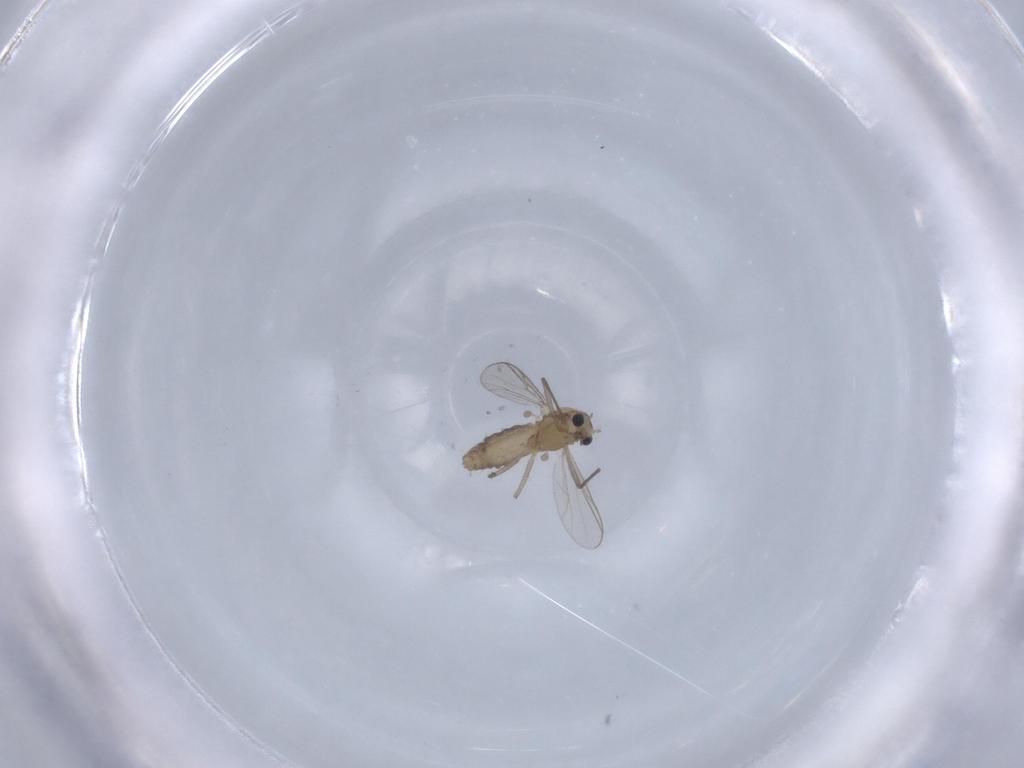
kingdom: Animalia
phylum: Arthropoda
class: Insecta
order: Diptera
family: Chironomidae
